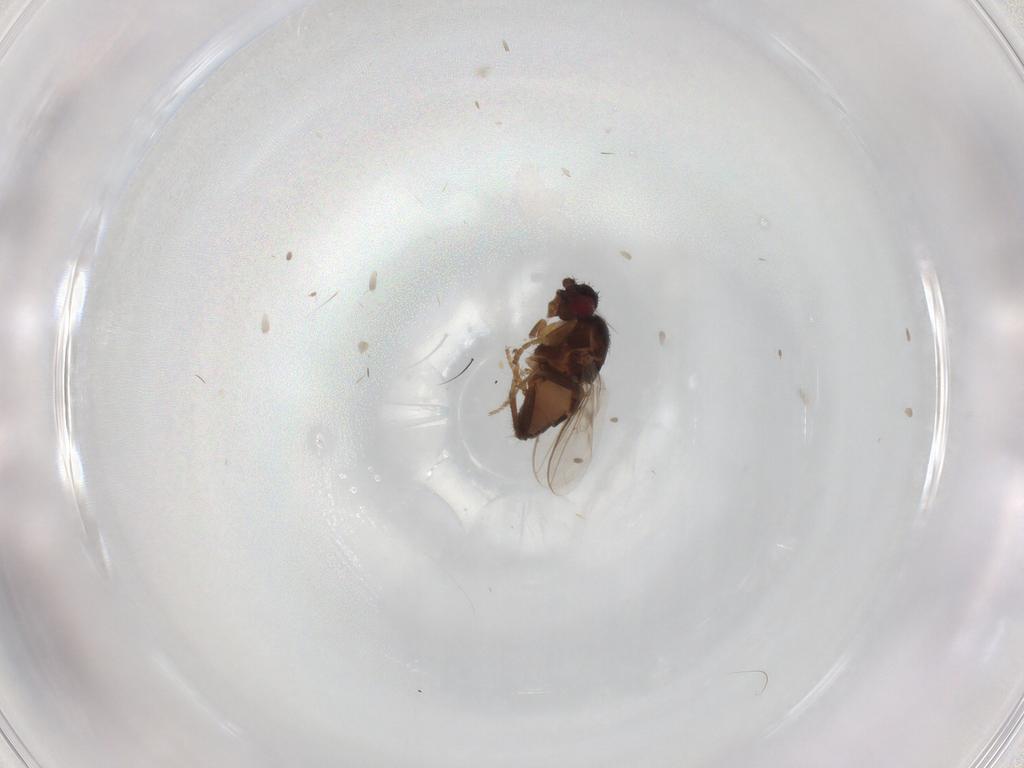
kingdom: Animalia
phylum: Arthropoda
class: Insecta
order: Diptera
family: Sphaeroceridae
